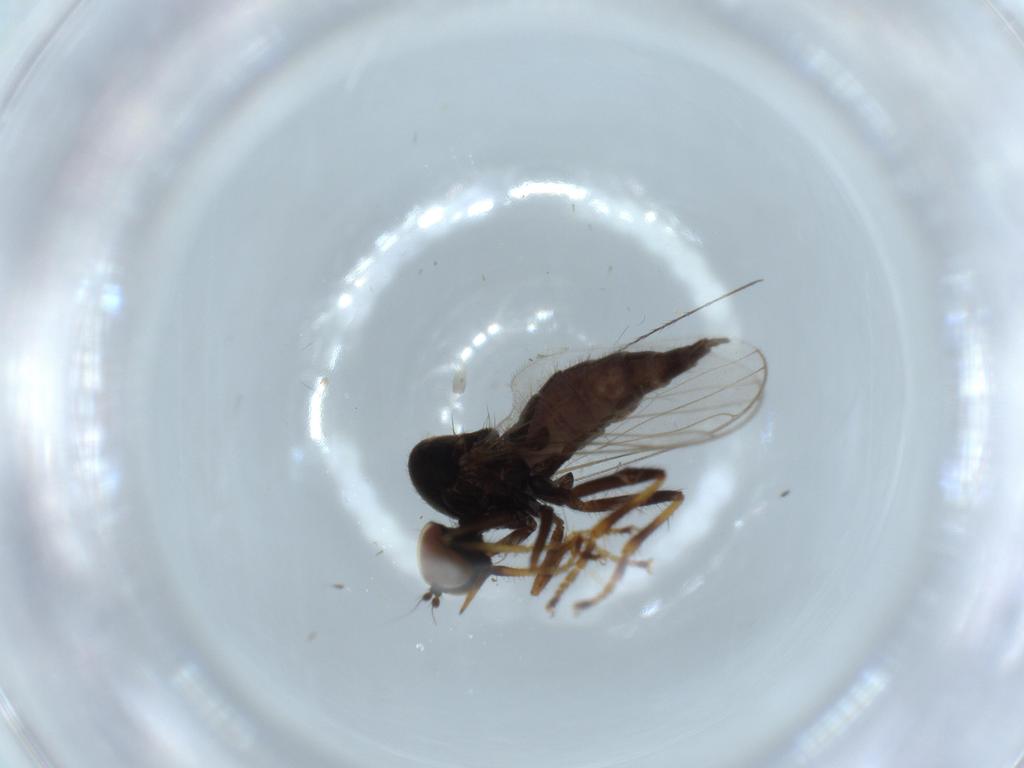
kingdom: Animalia
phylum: Arthropoda
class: Insecta
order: Diptera
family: Hybotidae
